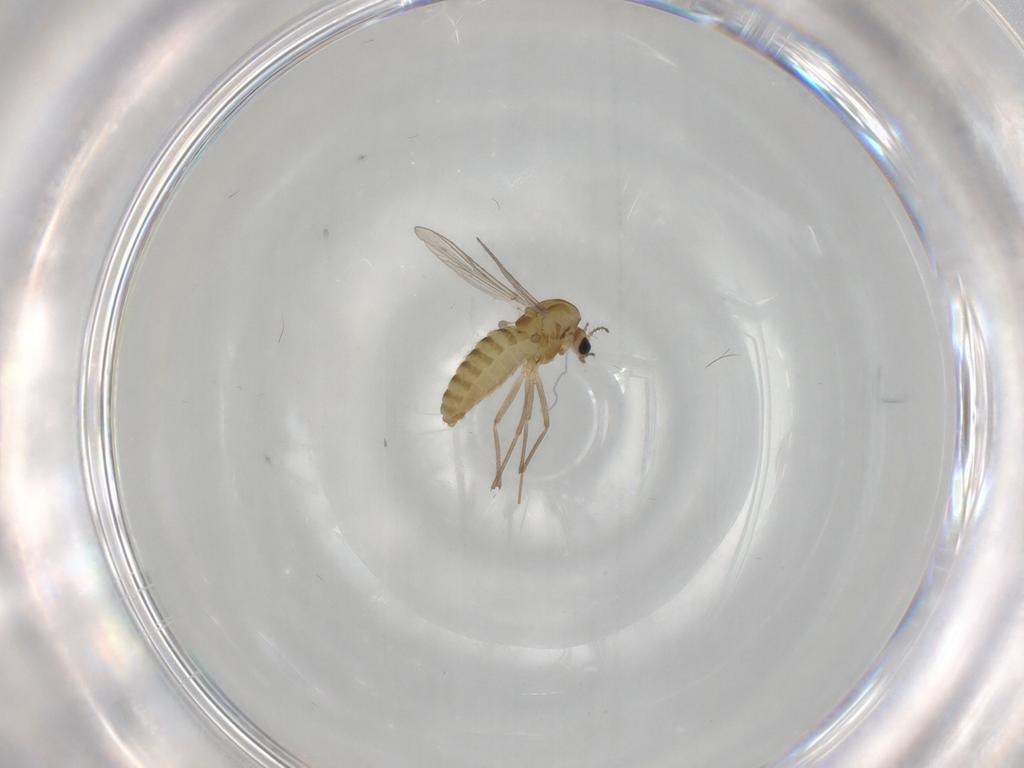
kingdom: Animalia
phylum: Arthropoda
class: Insecta
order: Diptera
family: Chironomidae
